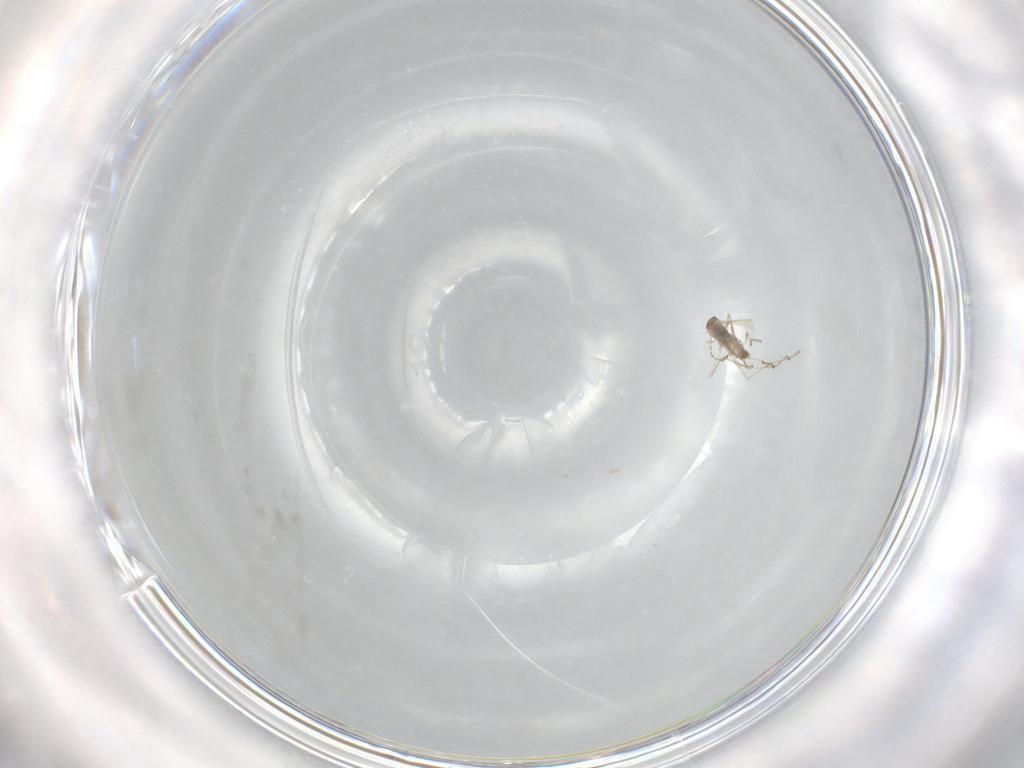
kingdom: Animalia
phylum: Arthropoda
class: Insecta
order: Diptera
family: Cecidomyiidae
